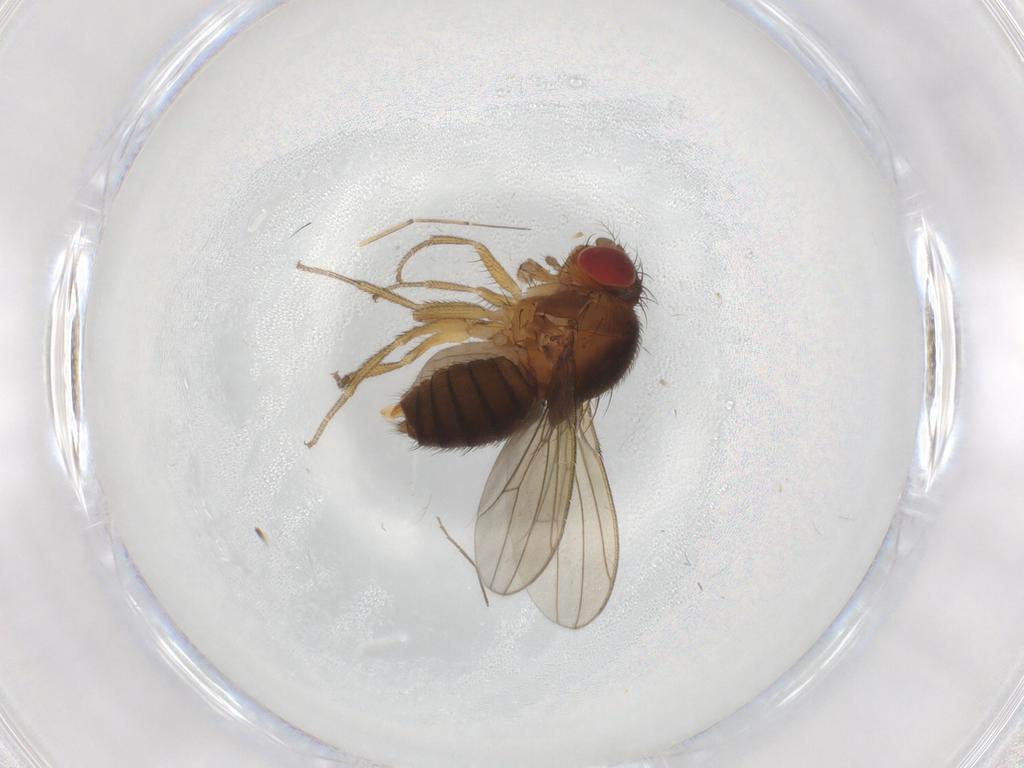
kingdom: Animalia
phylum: Arthropoda
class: Insecta
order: Diptera
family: Drosophilidae
